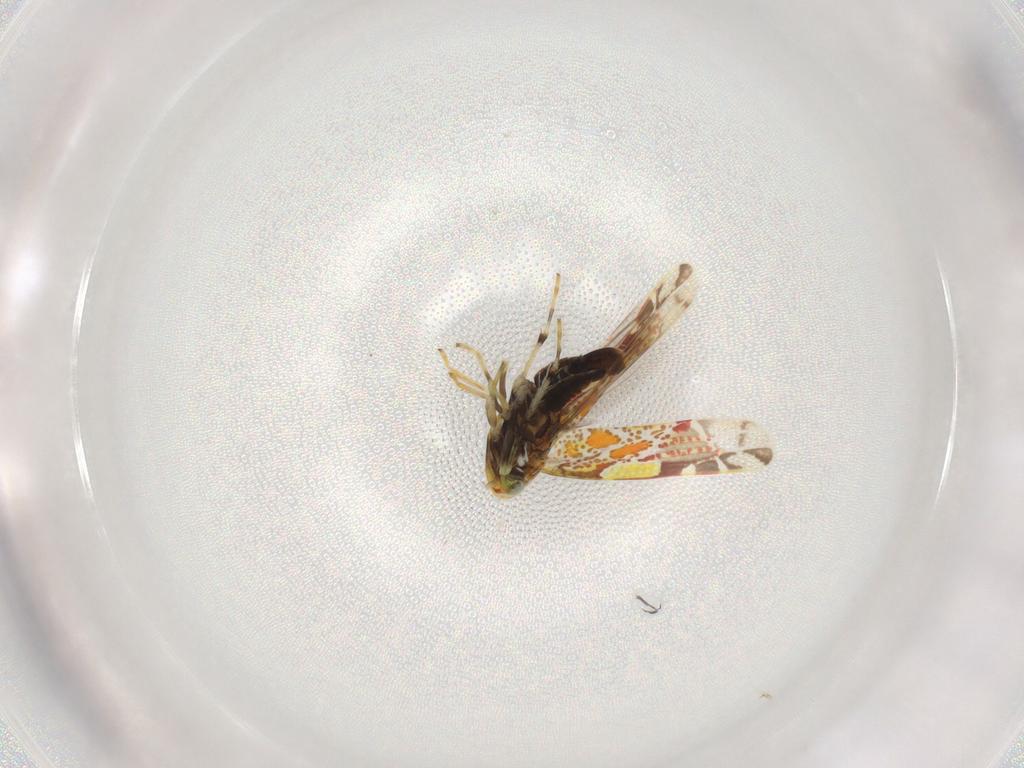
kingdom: Animalia
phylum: Arthropoda
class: Insecta
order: Hemiptera
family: Cicadellidae
